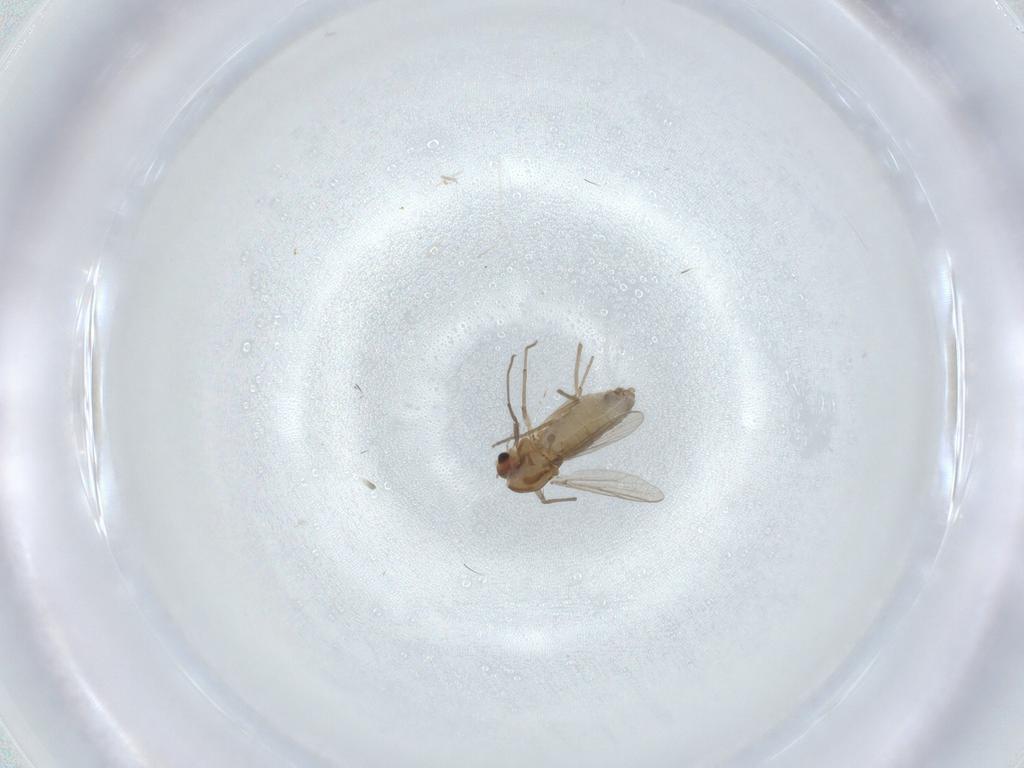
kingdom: Animalia
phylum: Arthropoda
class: Insecta
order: Diptera
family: Chironomidae
